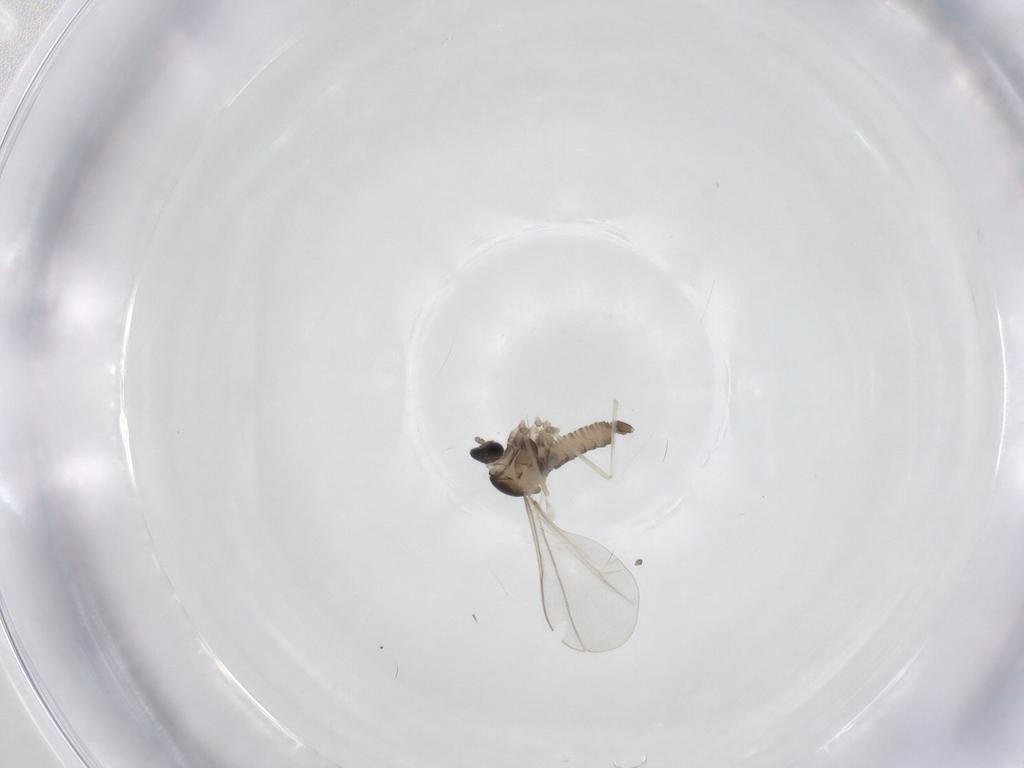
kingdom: Animalia
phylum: Arthropoda
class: Insecta
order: Diptera
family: Cecidomyiidae
